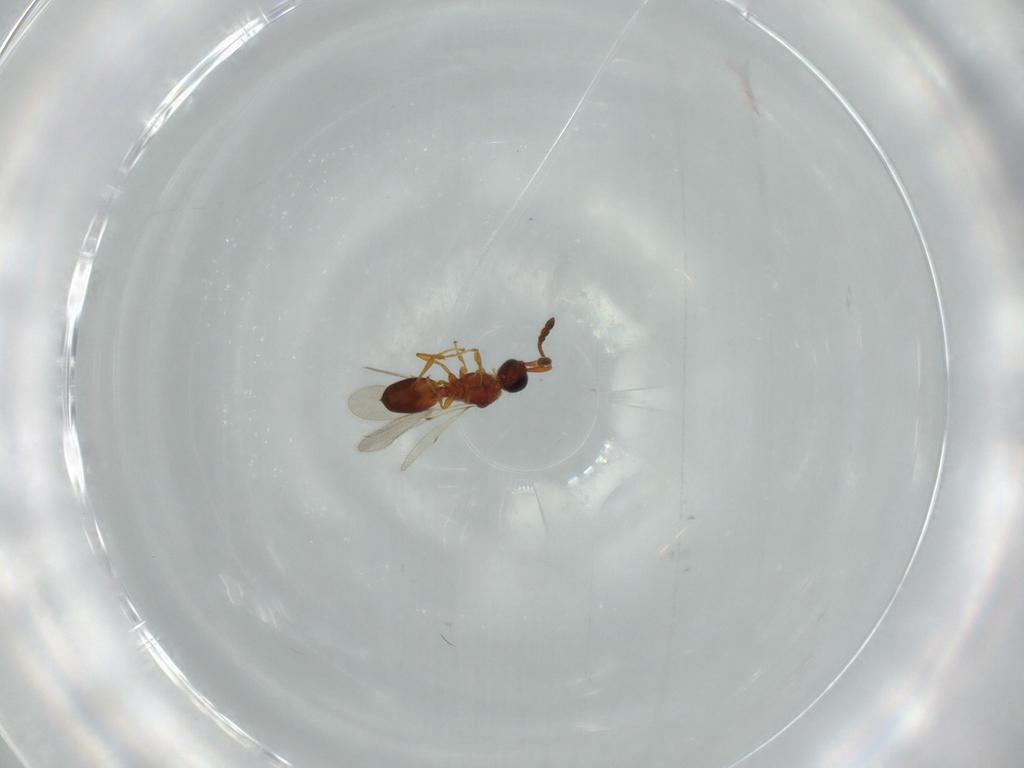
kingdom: Animalia
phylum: Arthropoda
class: Insecta
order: Hymenoptera
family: Diapriidae
